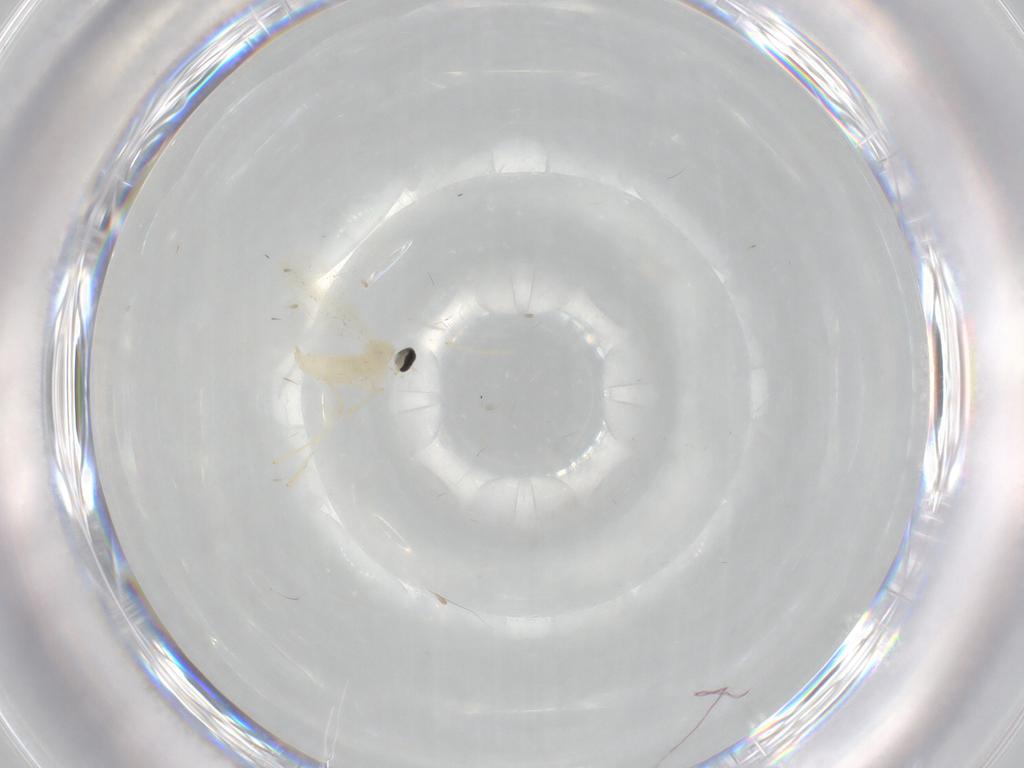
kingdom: Animalia
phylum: Arthropoda
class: Insecta
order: Diptera
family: Cecidomyiidae
